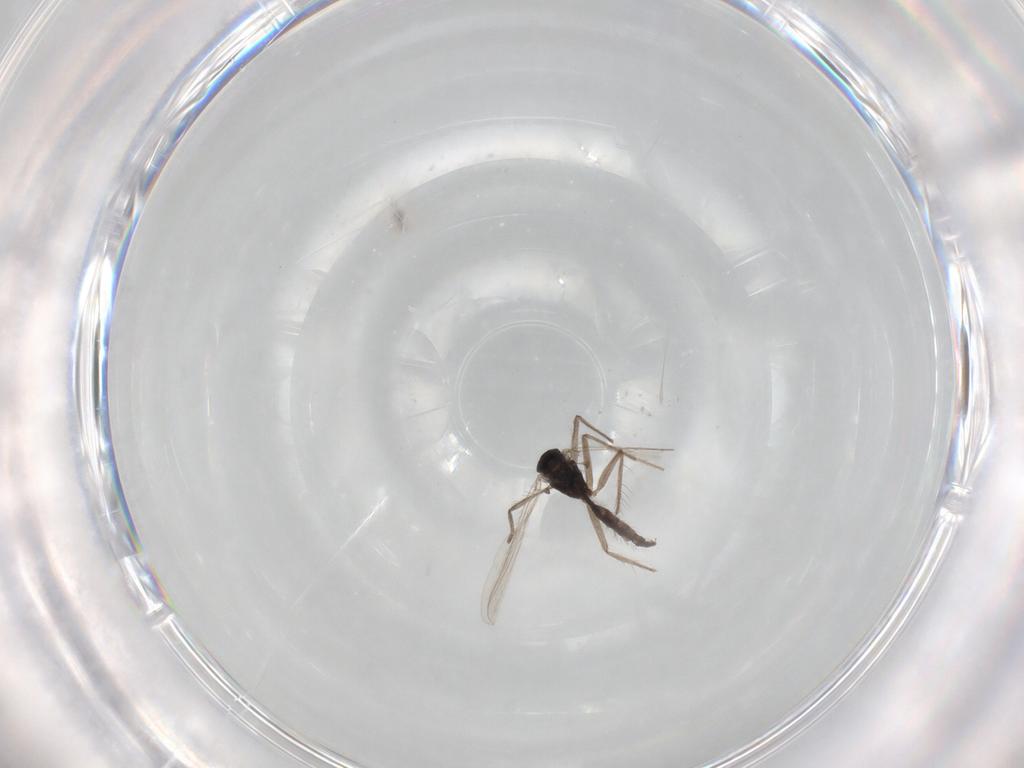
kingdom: Animalia
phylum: Arthropoda
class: Insecta
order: Diptera
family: Chironomidae
